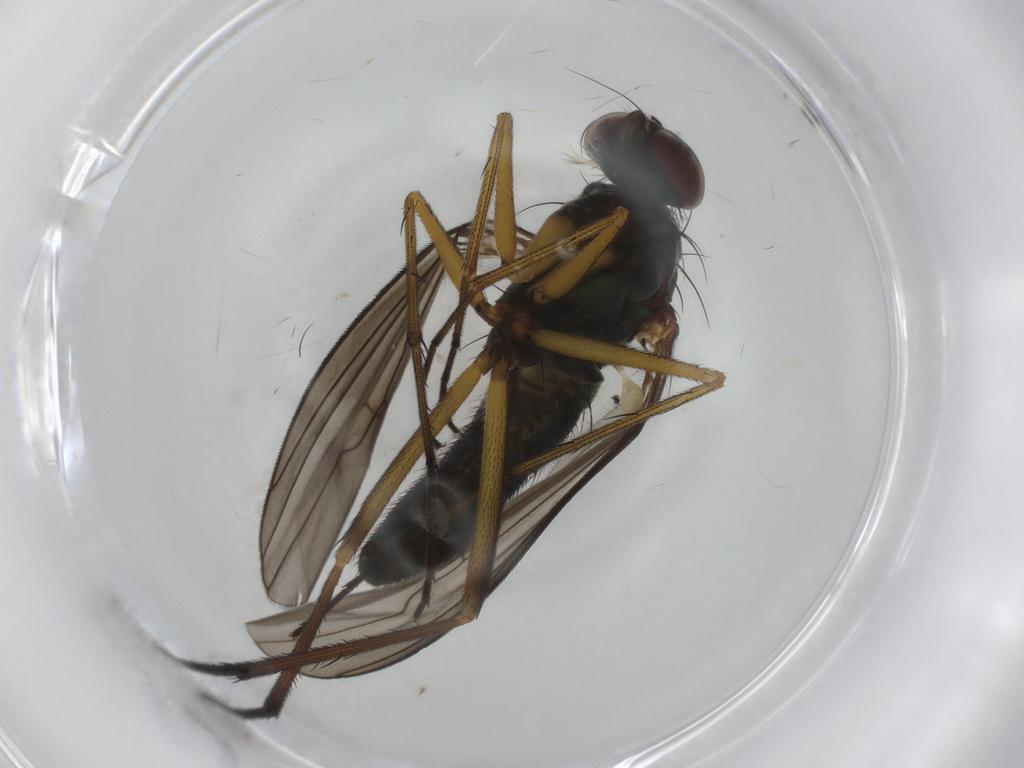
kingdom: Animalia
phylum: Arthropoda
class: Insecta
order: Diptera
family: Dolichopodidae
